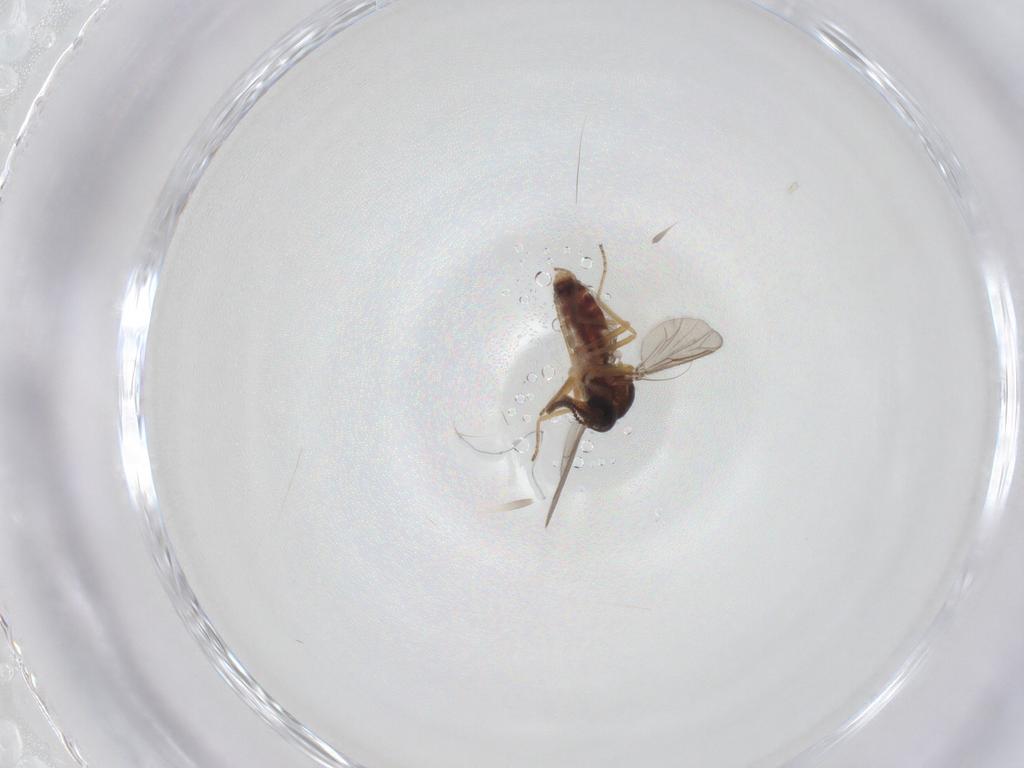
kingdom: Animalia
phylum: Arthropoda
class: Insecta
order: Diptera
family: Ceratopogonidae
